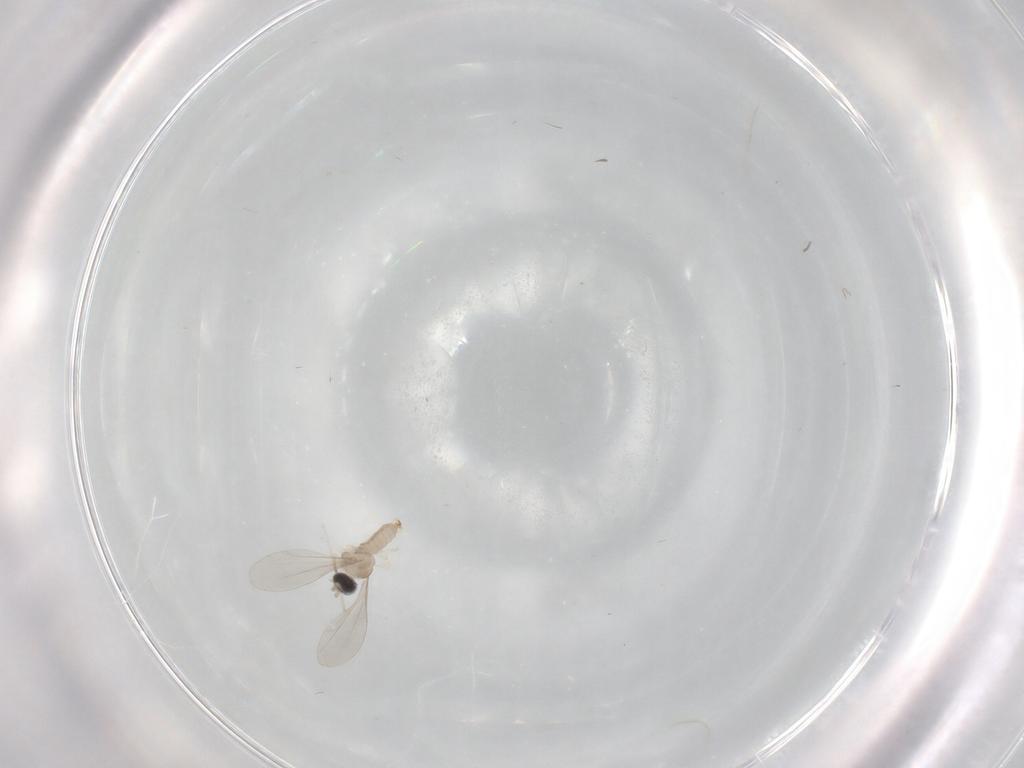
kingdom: Animalia
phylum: Arthropoda
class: Insecta
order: Diptera
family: Cecidomyiidae
